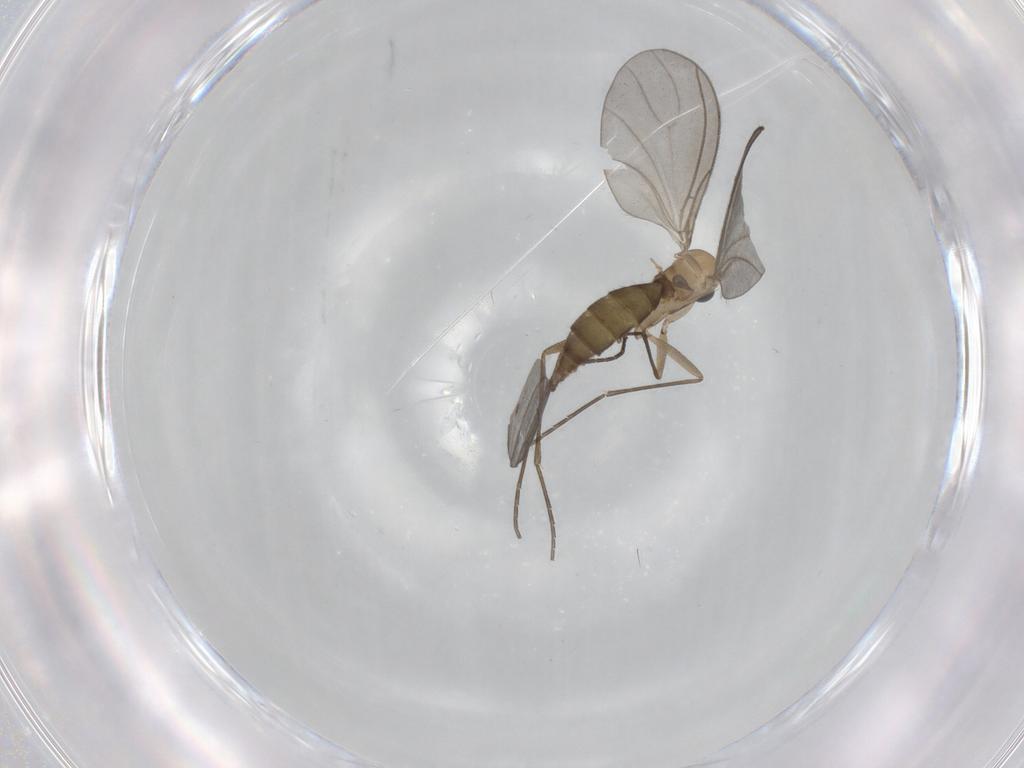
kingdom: Animalia
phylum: Arthropoda
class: Insecta
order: Diptera
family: Sciaridae
